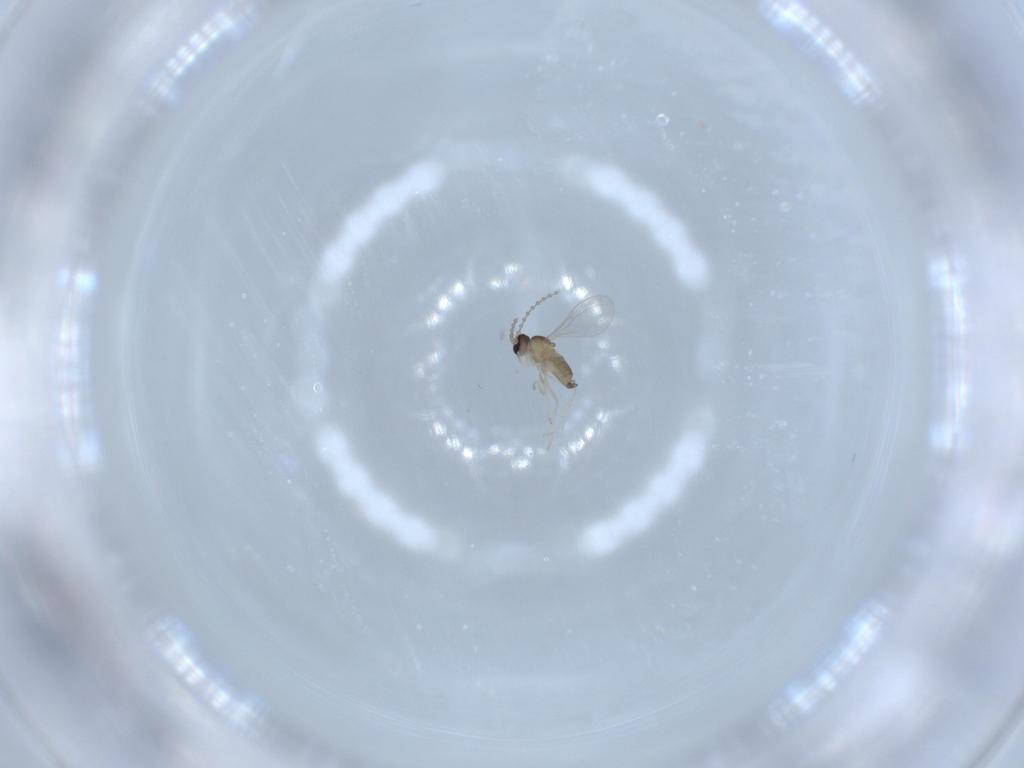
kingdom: Animalia
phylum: Arthropoda
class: Insecta
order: Diptera
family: Cecidomyiidae
